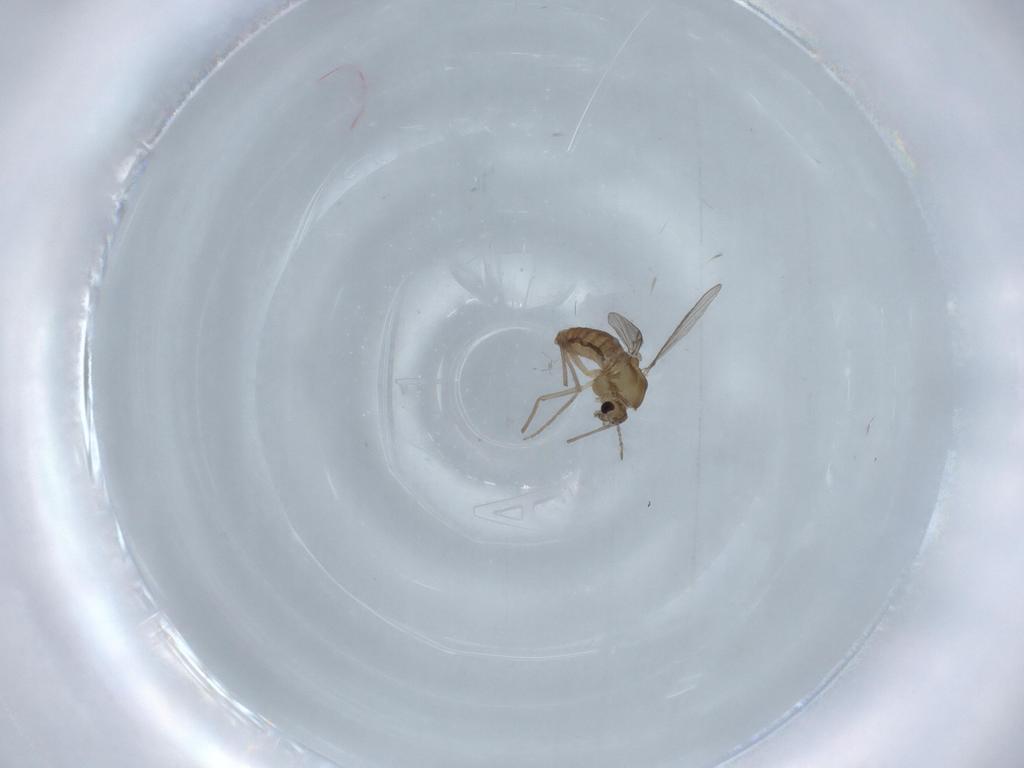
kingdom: Animalia
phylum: Arthropoda
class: Insecta
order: Diptera
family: Chironomidae
